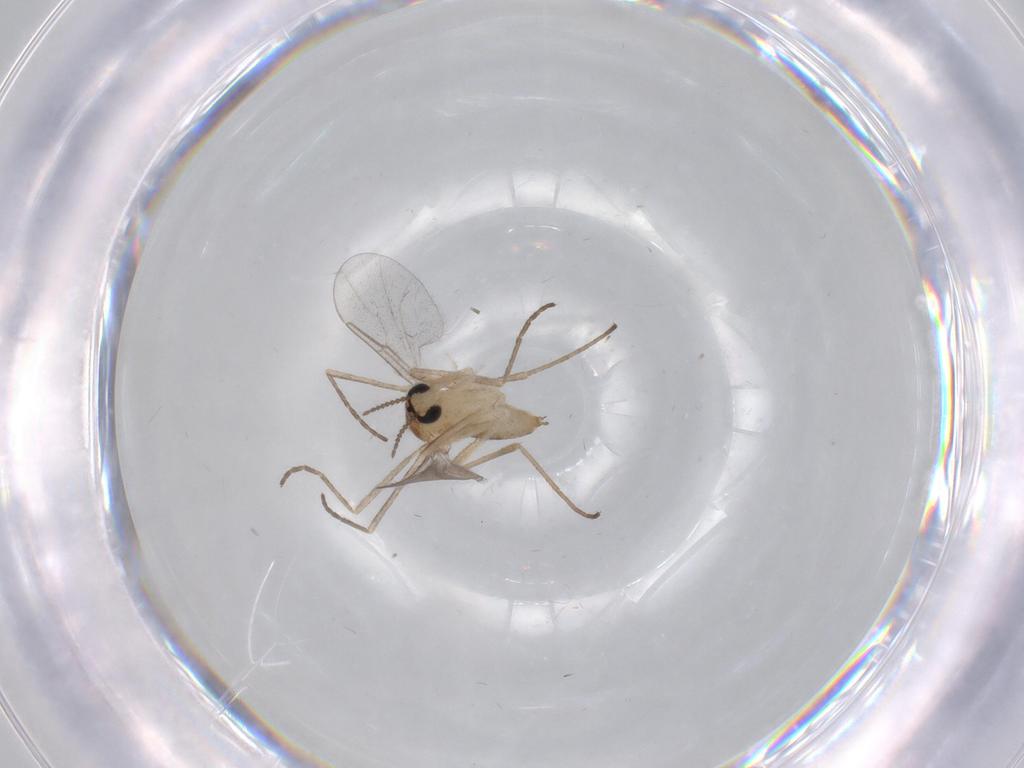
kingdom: Animalia
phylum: Arthropoda
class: Insecta
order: Diptera
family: Cecidomyiidae
